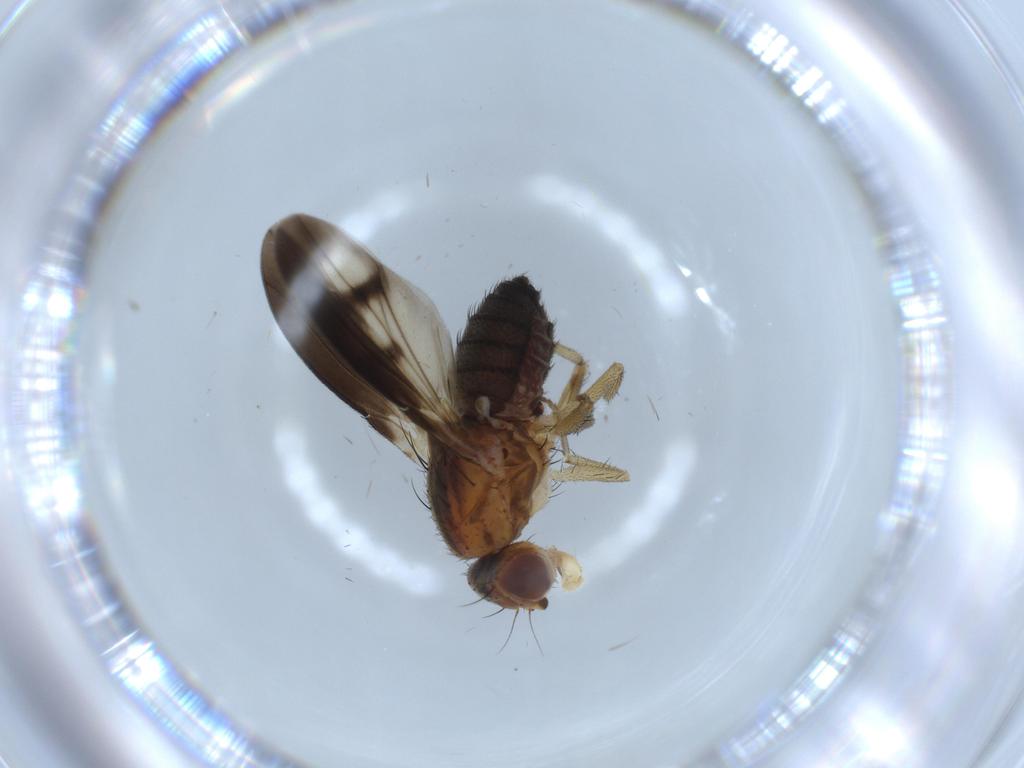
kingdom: Animalia
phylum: Arthropoda
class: Insecta
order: Diptera
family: Heleomyzidae
